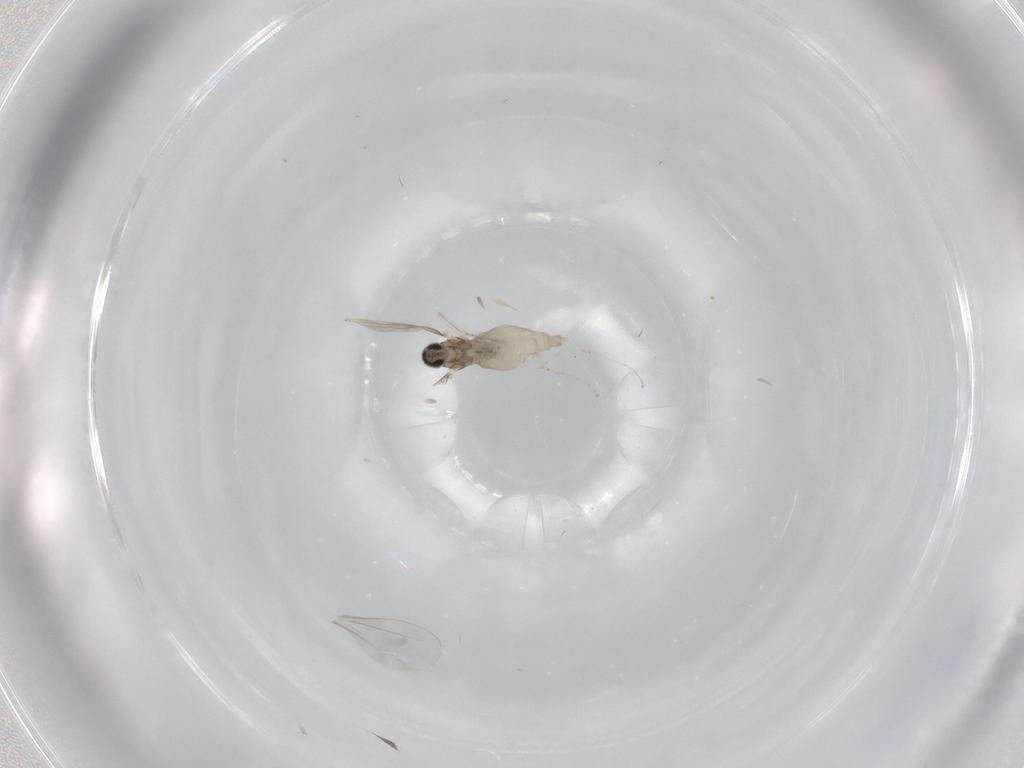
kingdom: Animalia
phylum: Arthropoda
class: Insecta
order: Diptera
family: Cecidomyiidae
